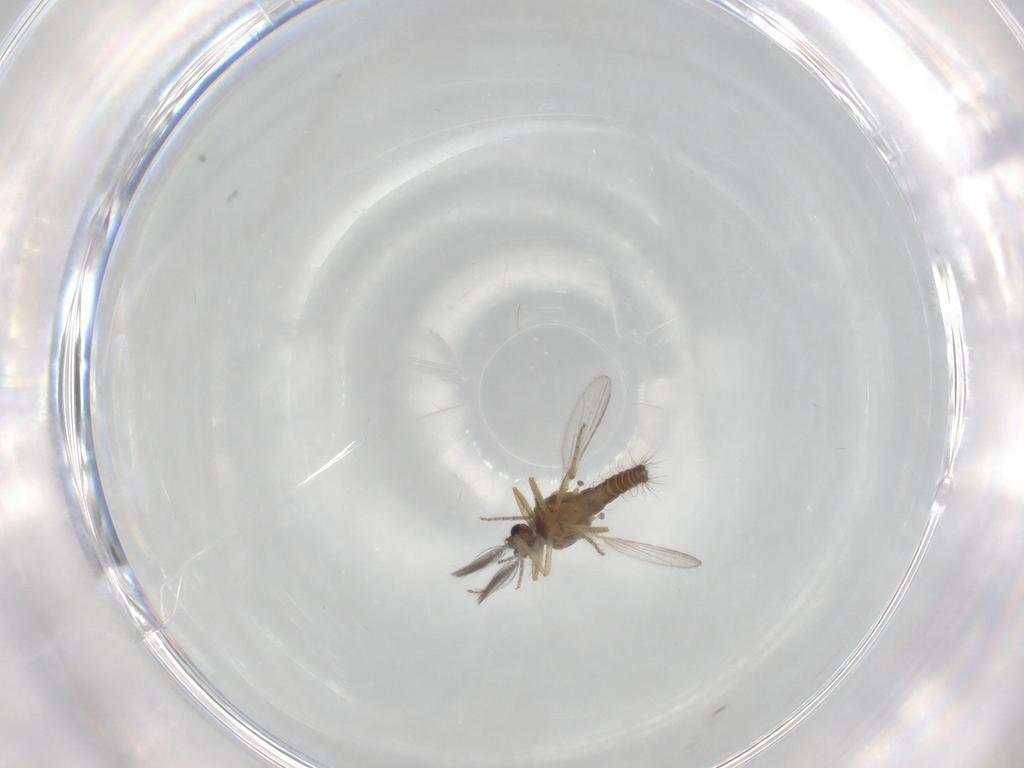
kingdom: Animalia
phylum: Arthropoda
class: Insecta
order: Diptera
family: Ceratopogonidae
